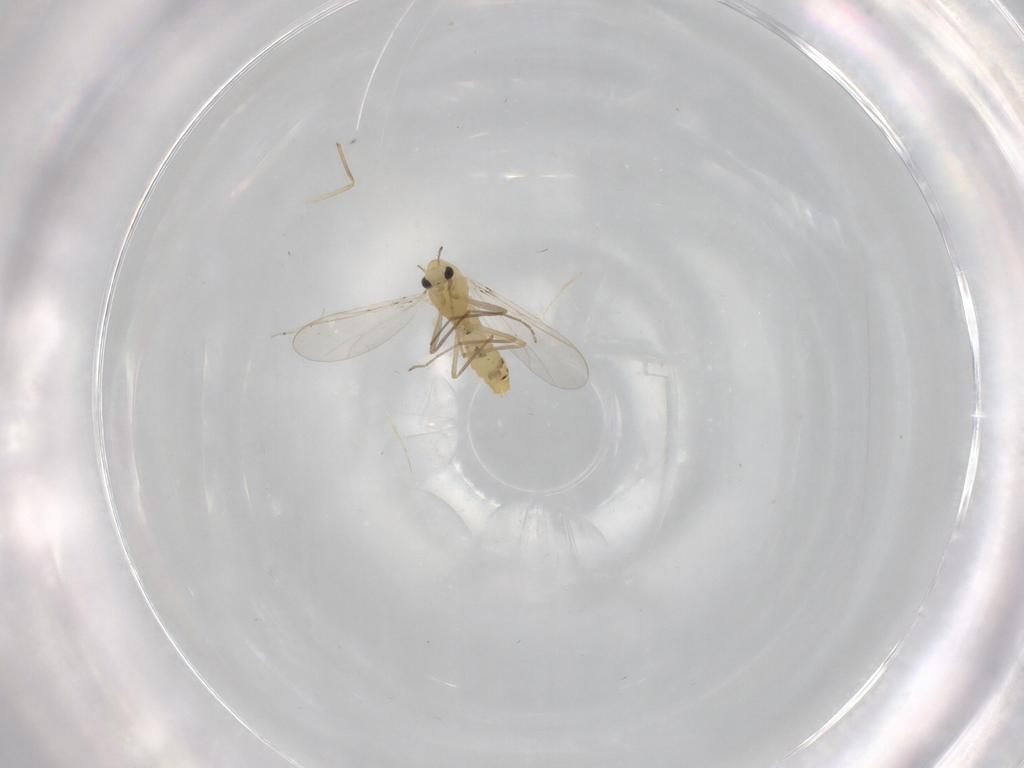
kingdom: Animalia
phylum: Arthropoda
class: Insecta
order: Diptera
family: Chironomidae
